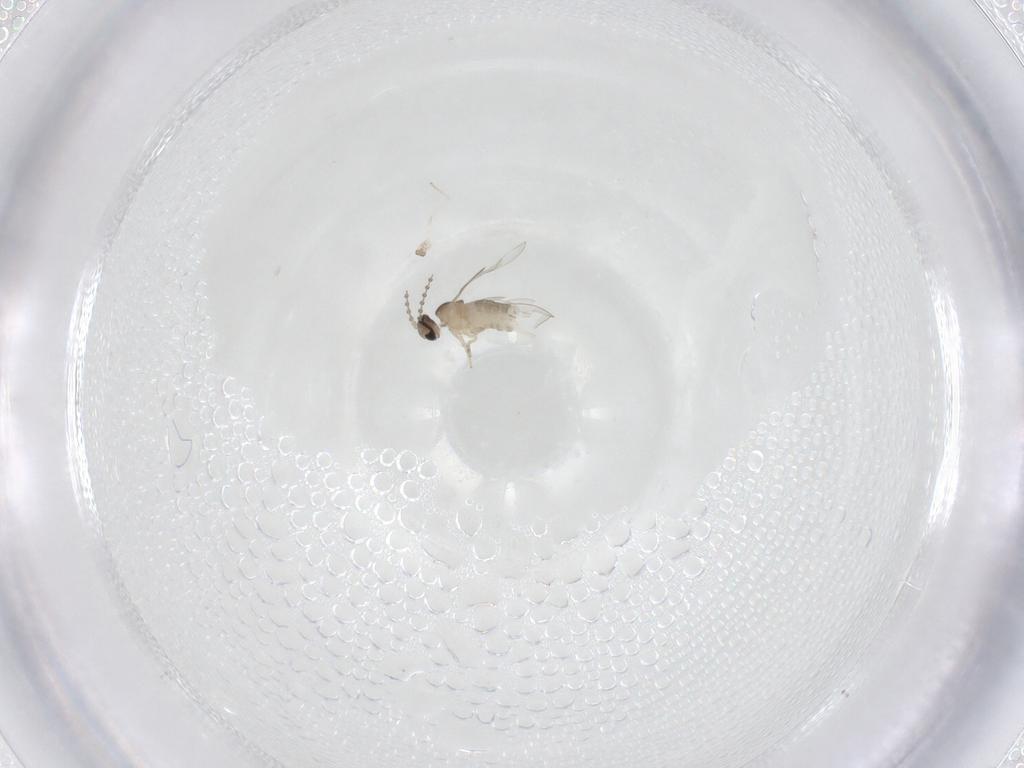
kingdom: Animalia
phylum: Arthropoda
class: Insecta
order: Diptera
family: Cecidomyiidae
